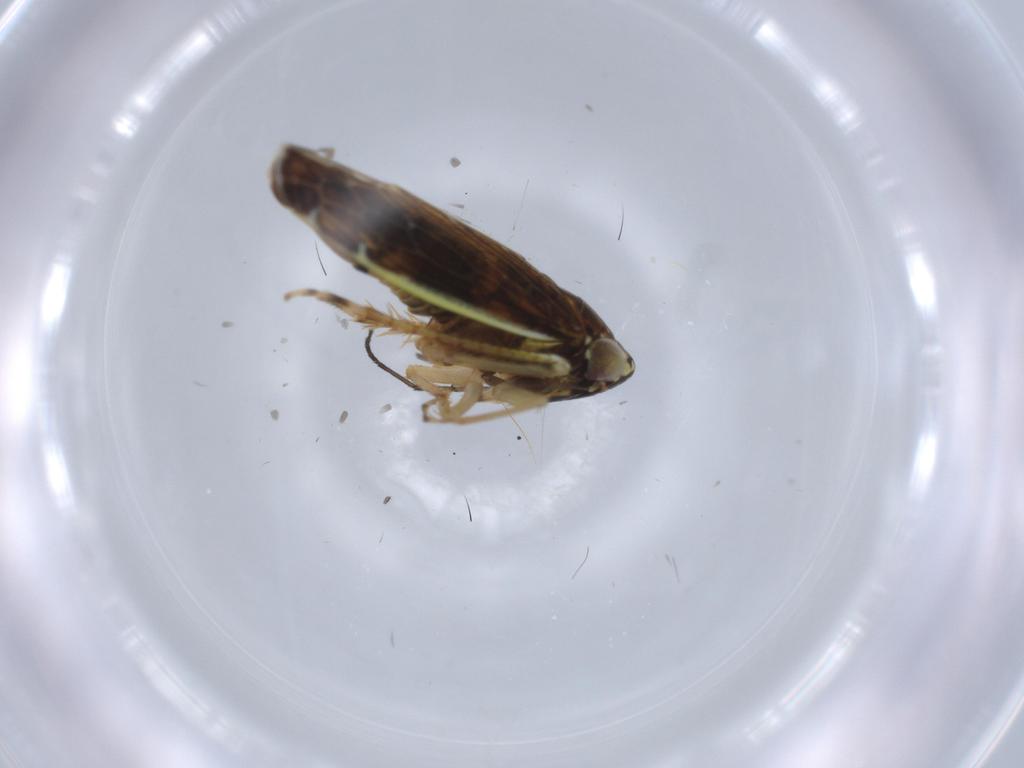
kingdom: Animalia
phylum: Arthropoda
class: Insecta
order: Hemiptera
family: Cicadellidae
